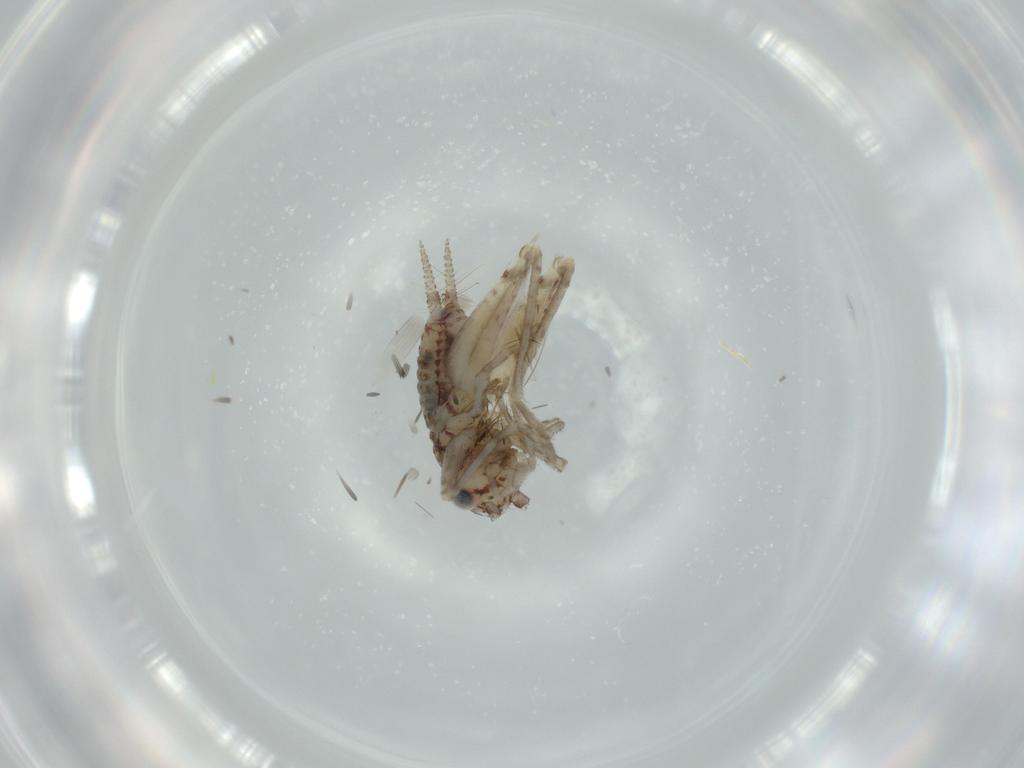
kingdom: Animalia
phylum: Arthropoda
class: Insecta
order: Orthoptera
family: Trigonidiidae
